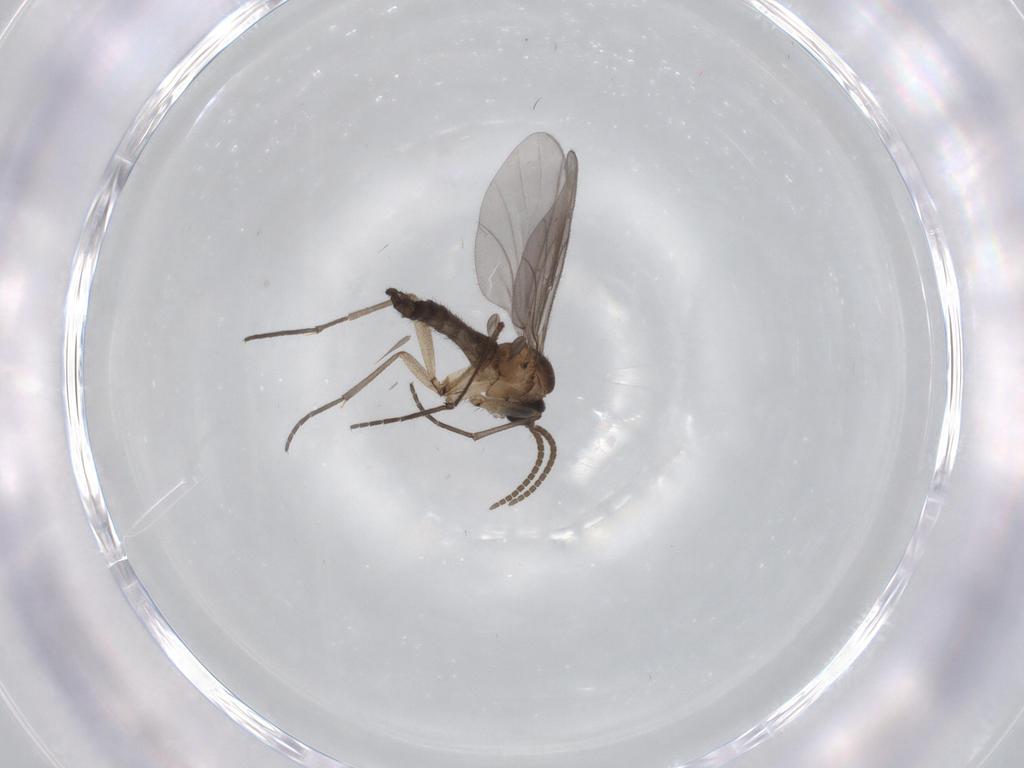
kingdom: Animalia
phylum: Arthropoda
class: Insecta
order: Diptera
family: Sciaridae
